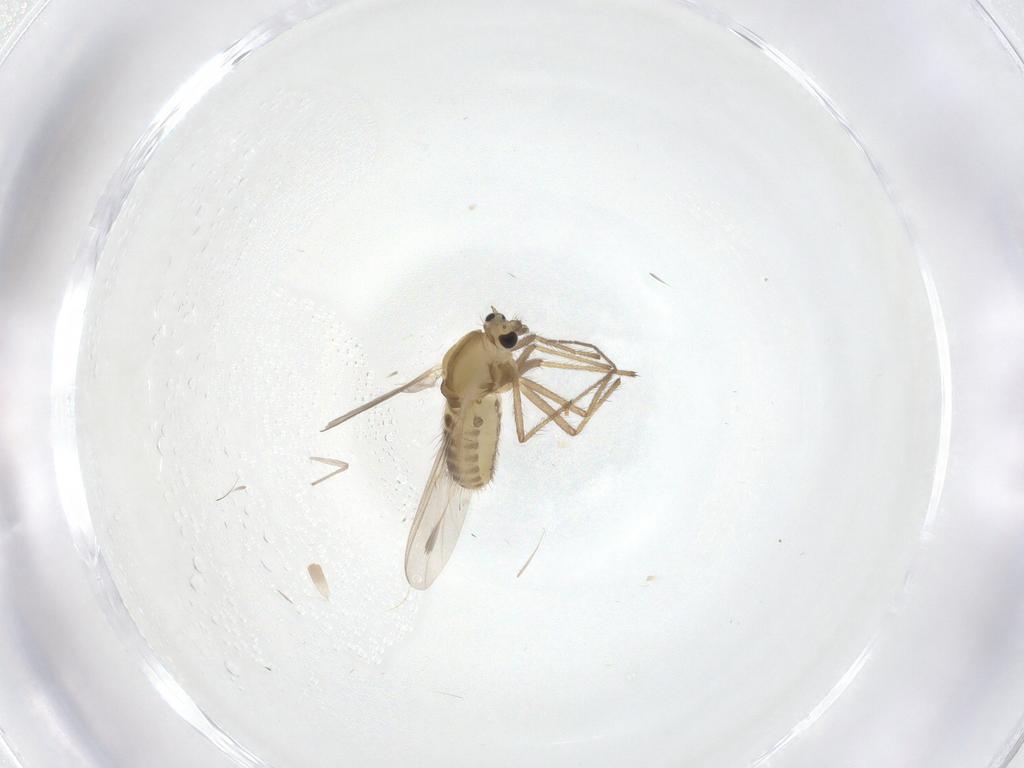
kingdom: Animalia
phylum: Arthropoda
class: Insecta
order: Diptera
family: Chironomidae
